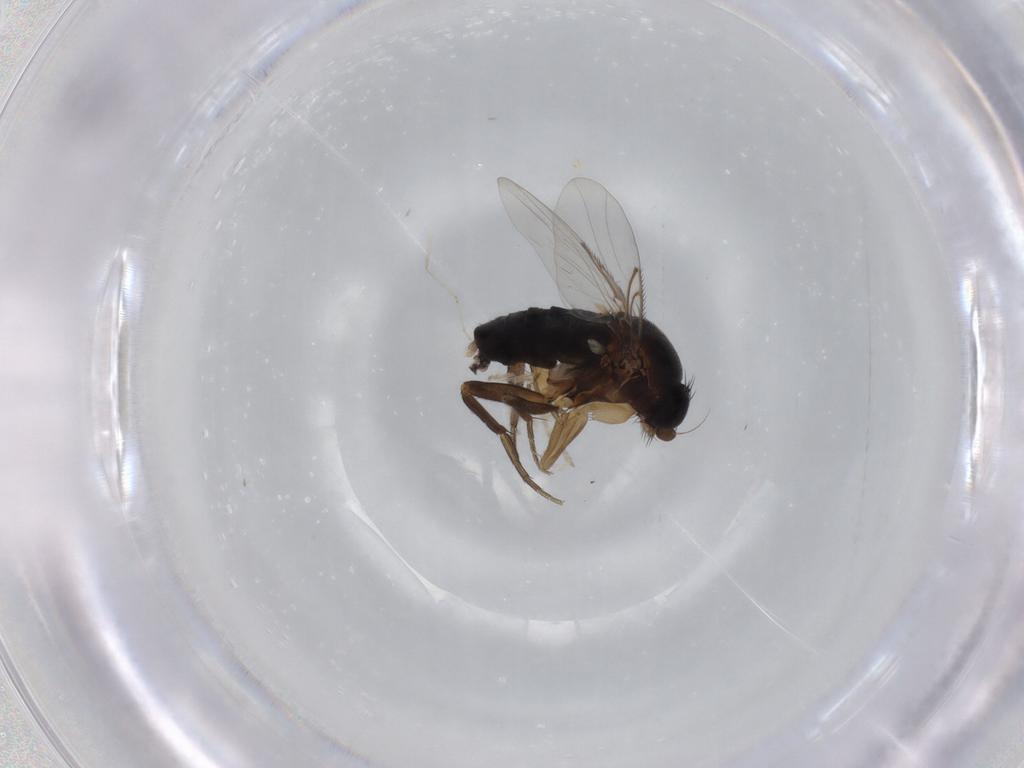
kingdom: Animalia
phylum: Arthropoda
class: Insecta
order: Diptera
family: Phoridae
